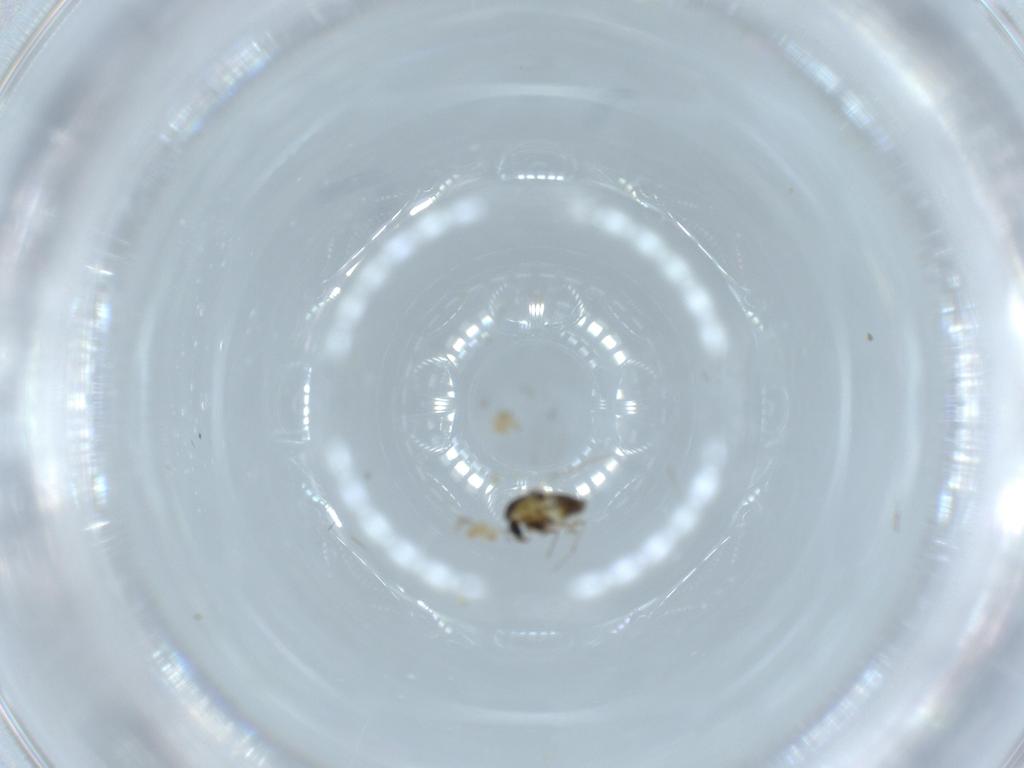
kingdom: Animalia
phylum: Arthropoda
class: Insecta
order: Diptera
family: Chironomidae
